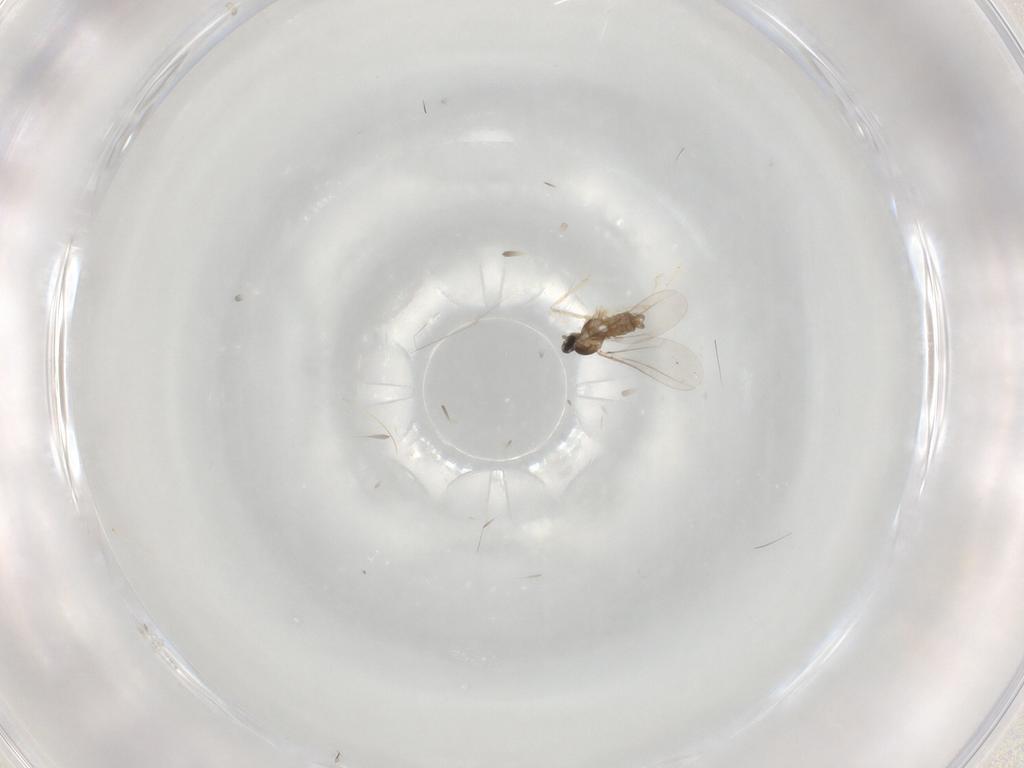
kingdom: Animalia
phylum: Arthropoda
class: Insecta
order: Diptera
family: Cecidomyiidae
